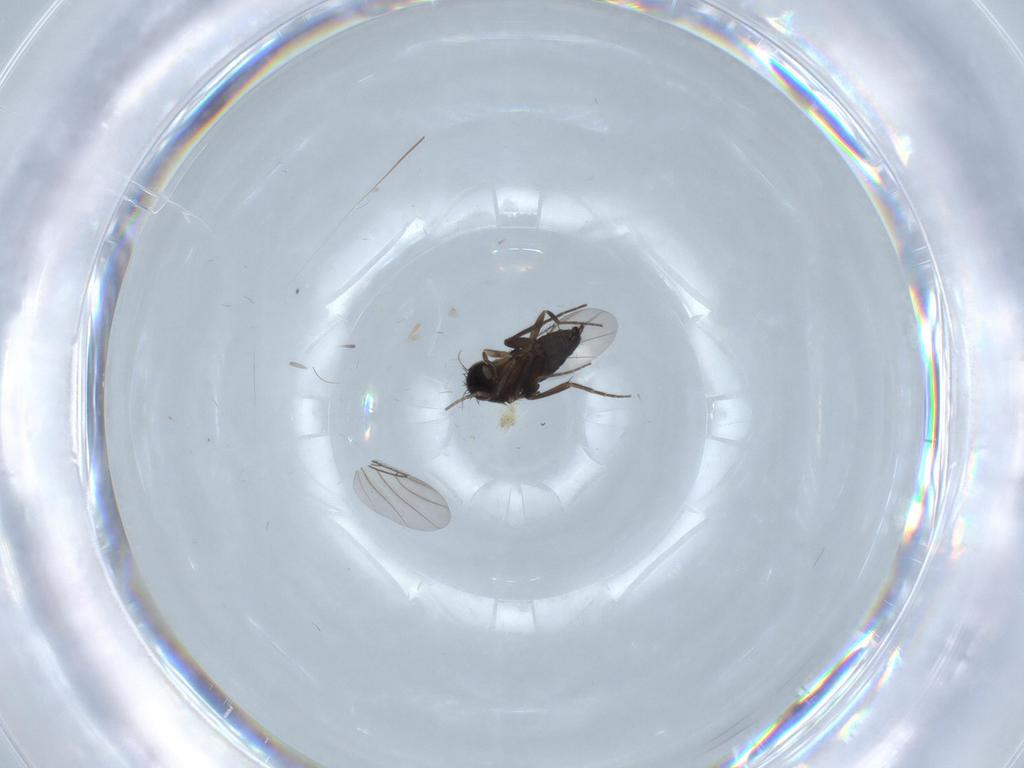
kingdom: Animalia
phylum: Arthropoda
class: Insecta
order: Diptera
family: Phoridae
